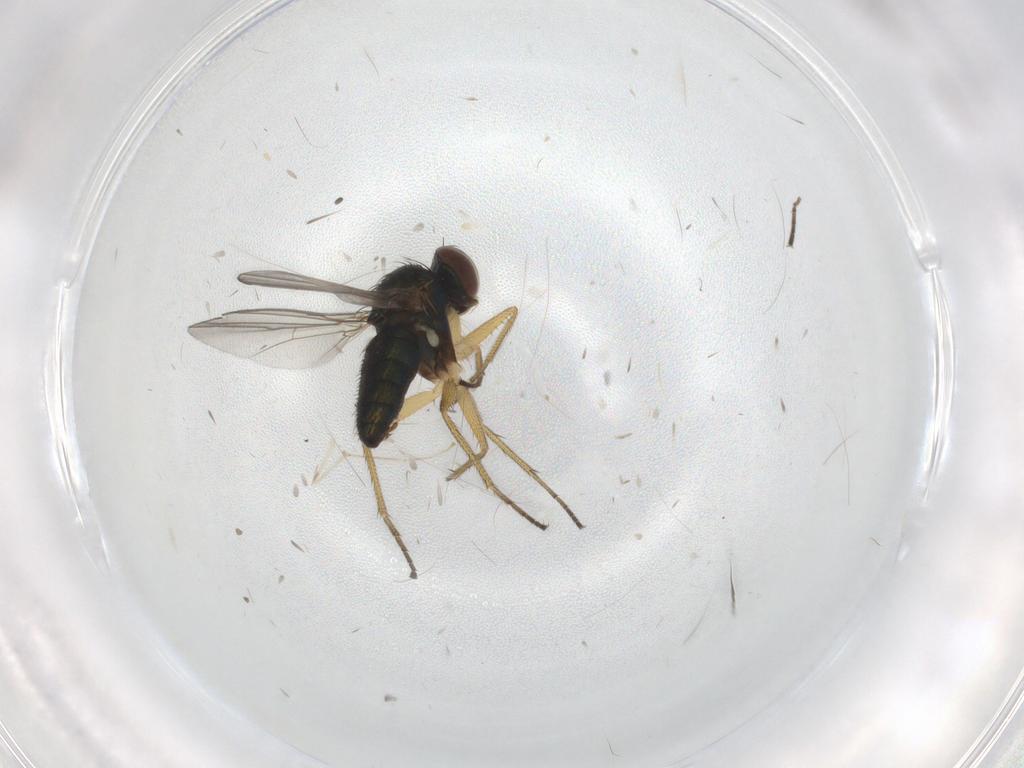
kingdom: Animalia
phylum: Arthropoda
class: Insecta
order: Diptera
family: Cecidomyiidae
